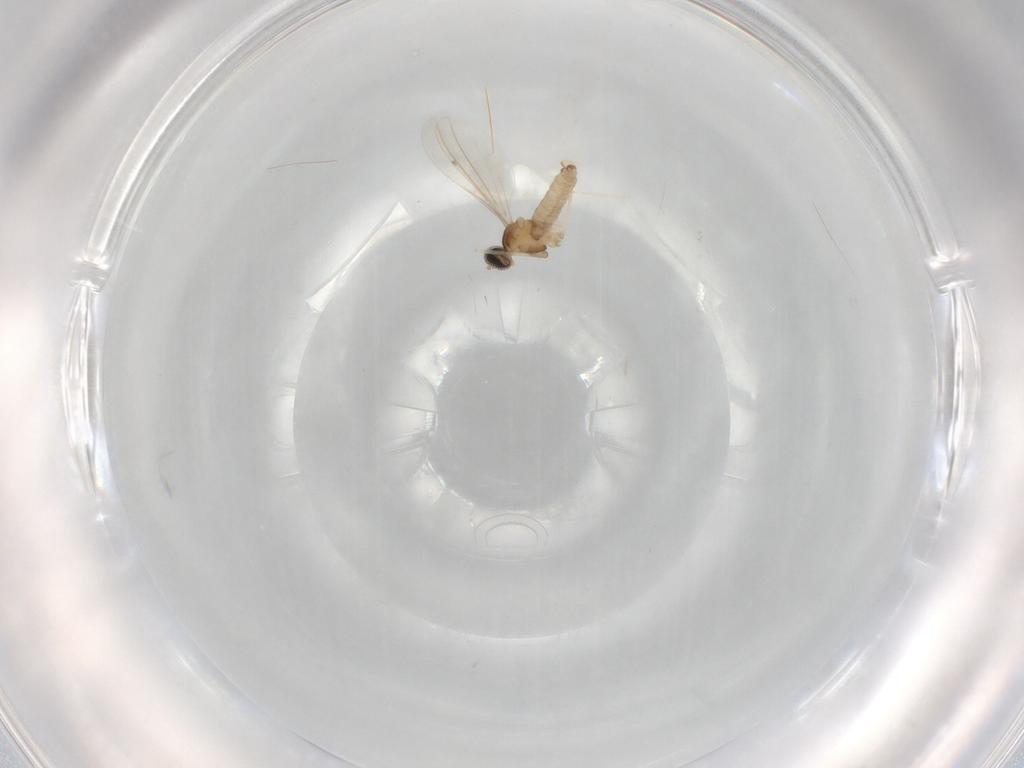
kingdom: Animalia
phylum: Arthropoda
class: Insecta
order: Diptera
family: Cecidomyiidae
